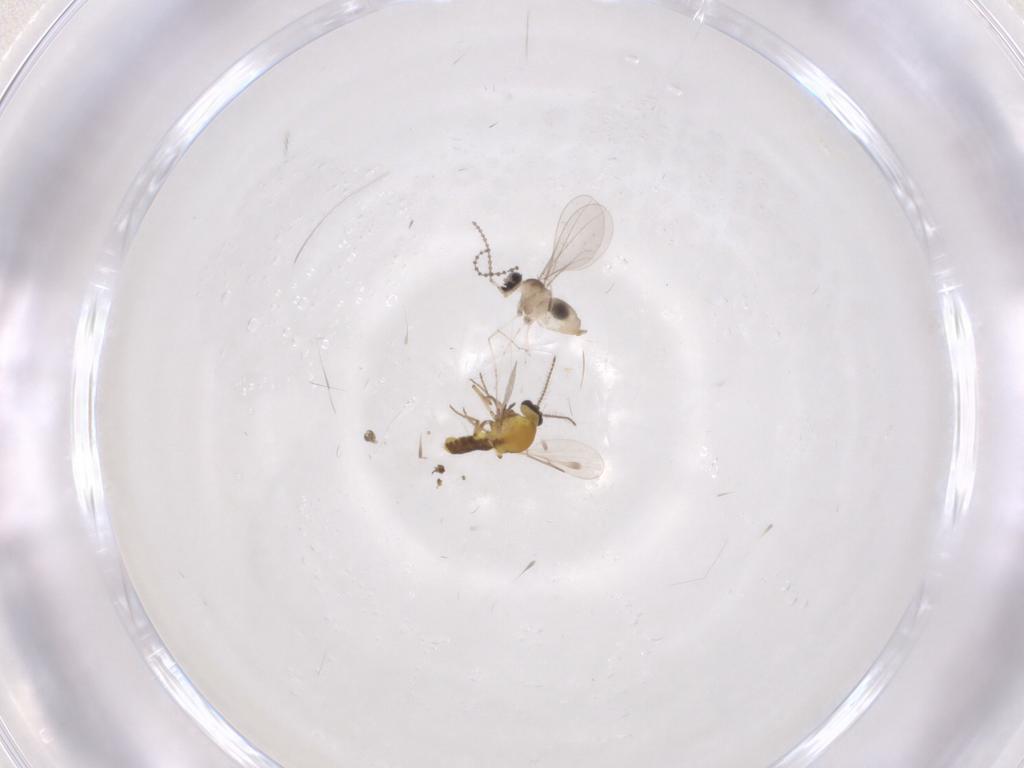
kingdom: Animalia
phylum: Arthropoda
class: Insecta
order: Diptera
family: Cecidomyiidae
